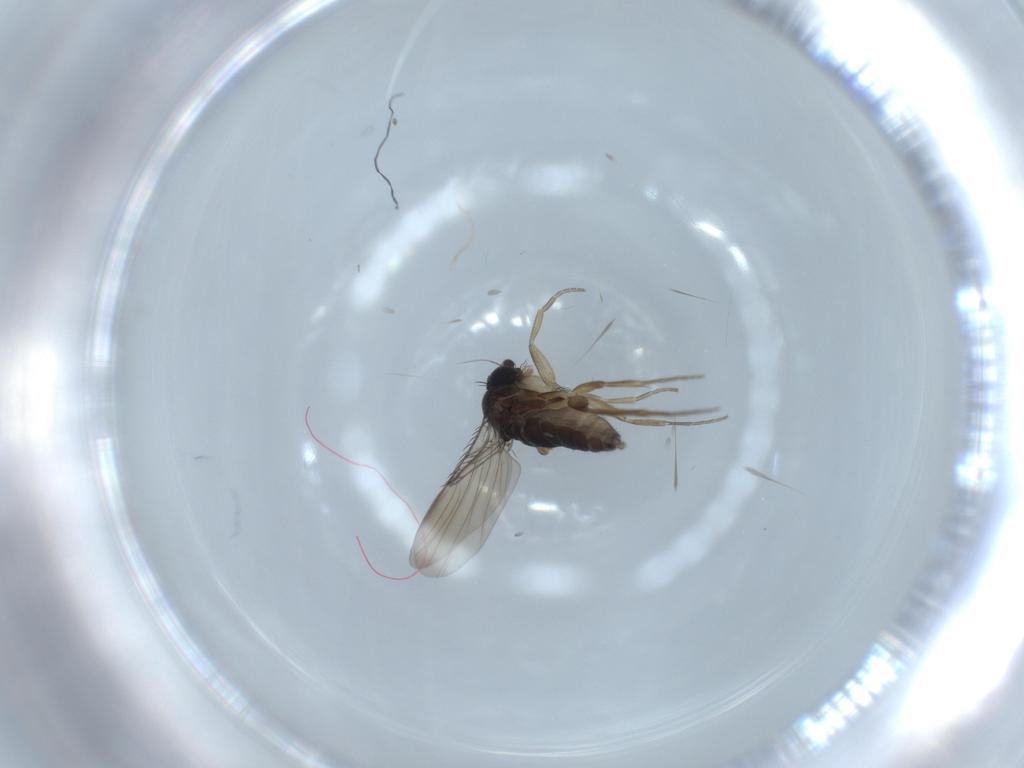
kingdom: Animalia
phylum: Arthropoda
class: Insecta
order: Diptera
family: Phoridae
